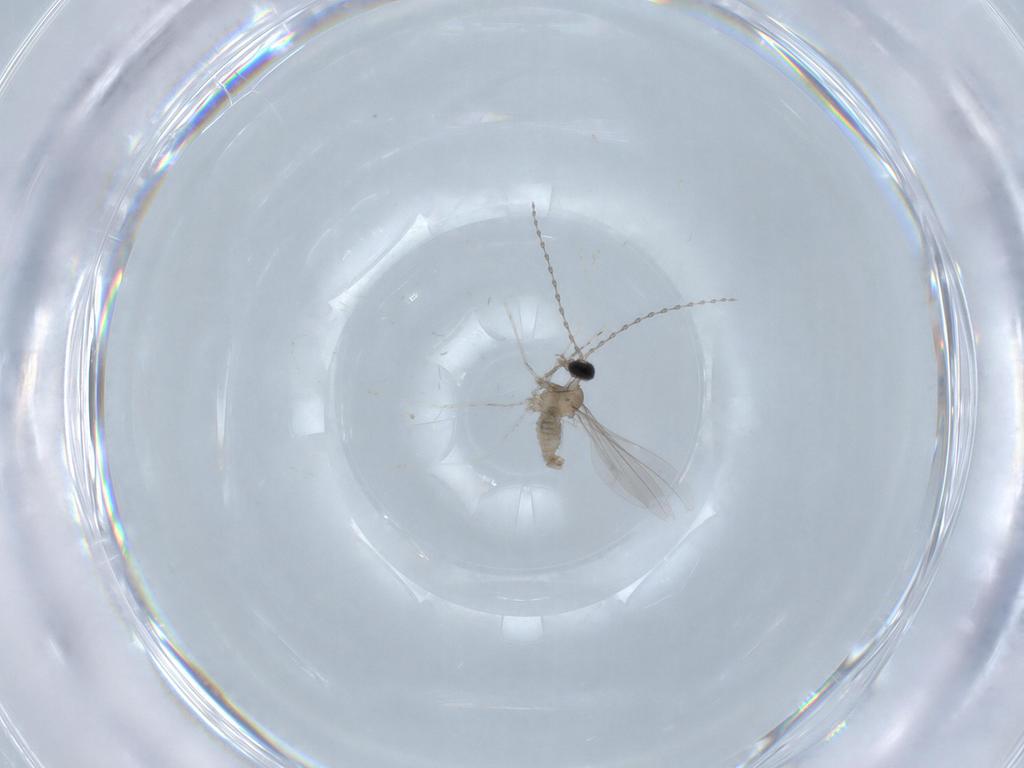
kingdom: Animalia
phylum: Arthropoda
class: Insecta
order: Diptera
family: Cecidomyiidae
